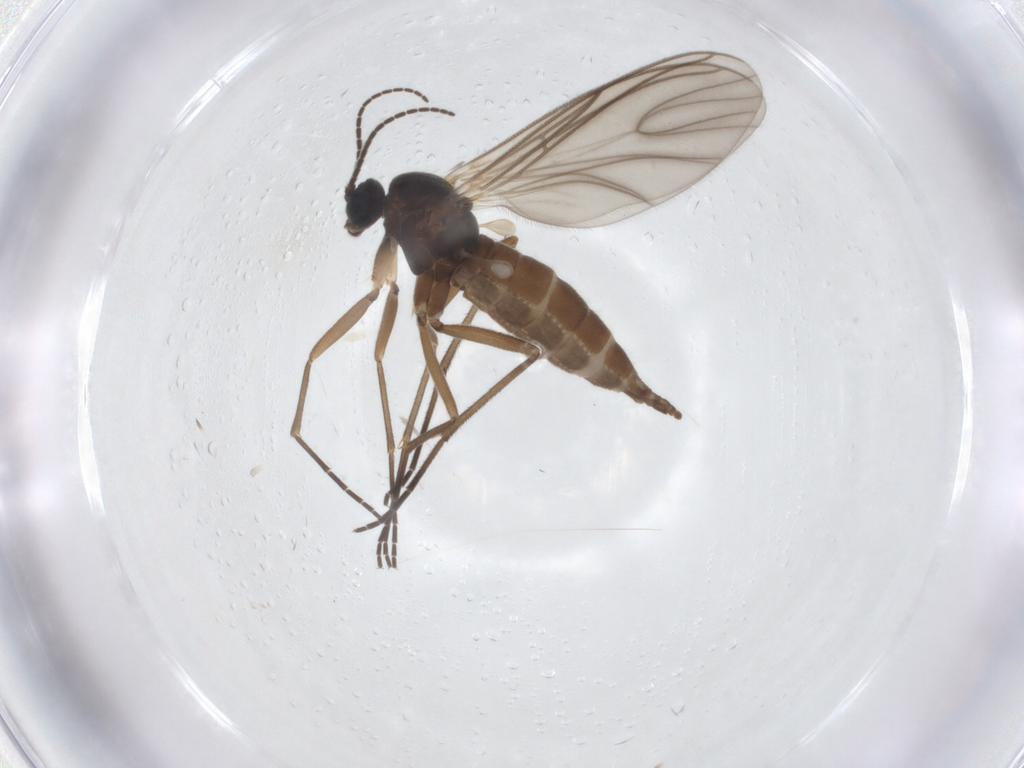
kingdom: Animalia
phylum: Arthropoda
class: Insecta
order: Diptera
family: Sciaridae
